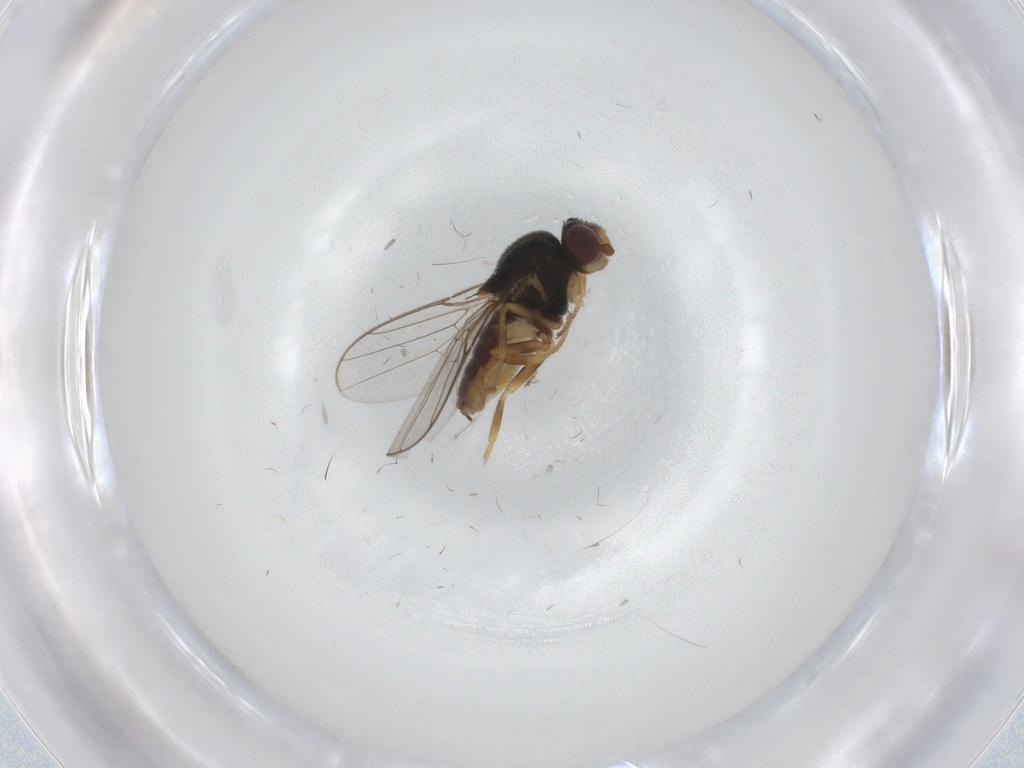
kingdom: Animalia
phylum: Arthropoda
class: Insecta
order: Diptera
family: Chloropidae
